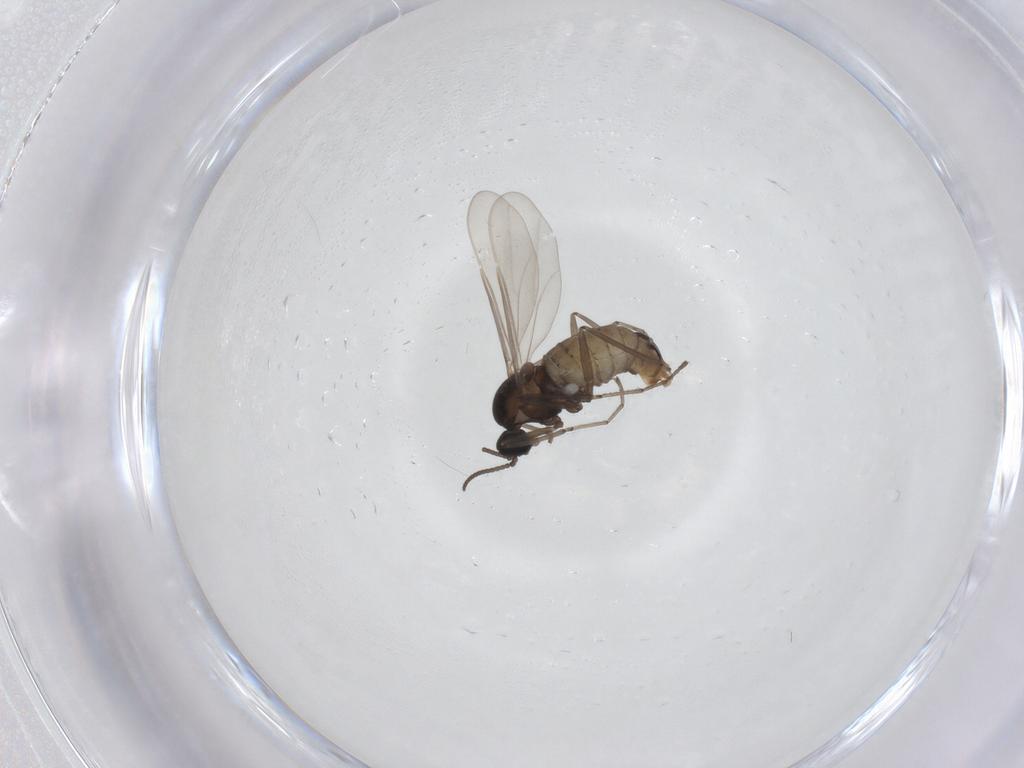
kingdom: Animalia
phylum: Arthropoda
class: Insecta
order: Diptera
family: Cecidomyiidae
